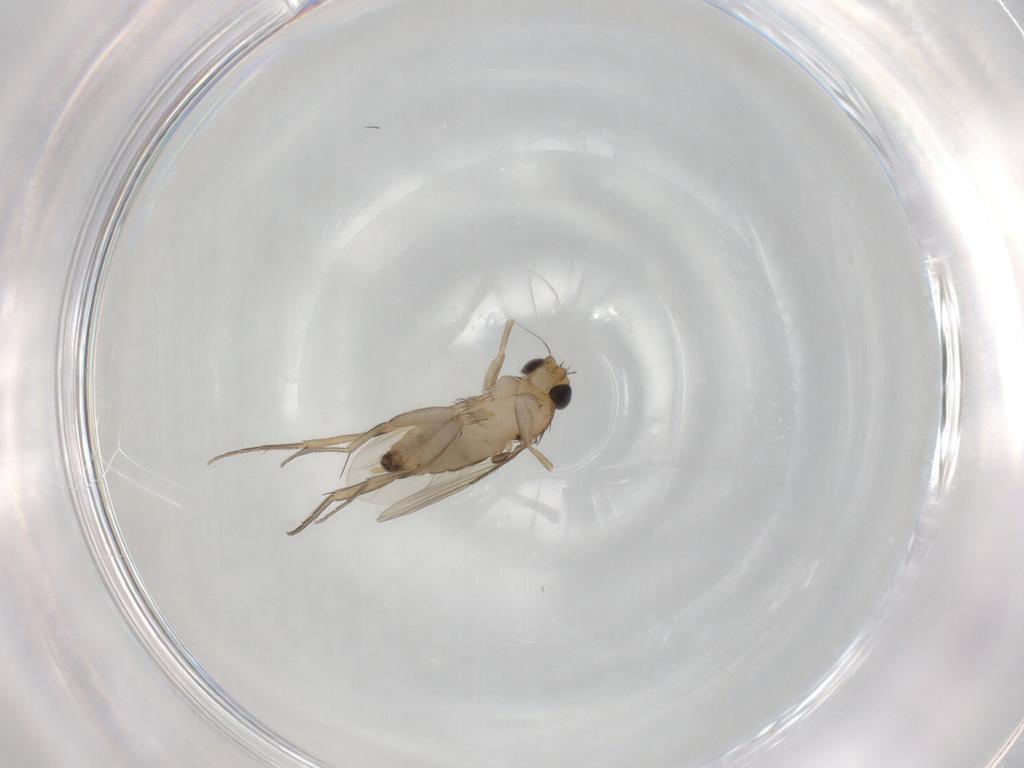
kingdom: Animalia
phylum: Arthropoda
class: Insecta
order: Diptera
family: Phoridae
